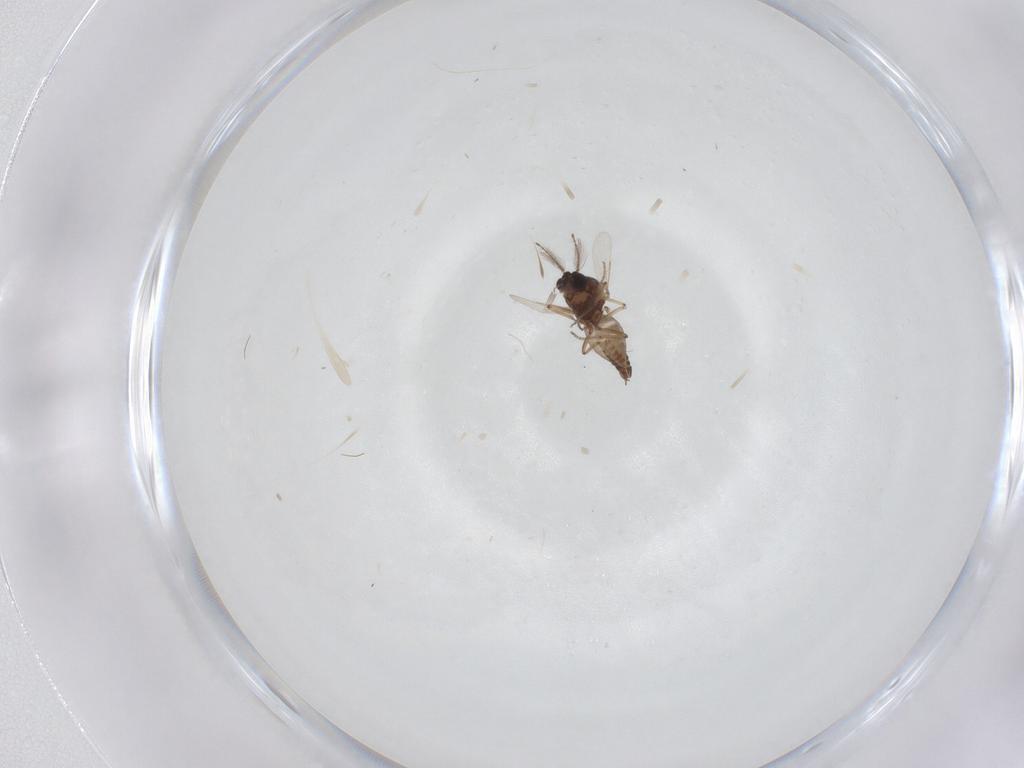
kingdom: Animalia
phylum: Arthropoda
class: Insecta
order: Diptera
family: Ceratopogonidae
